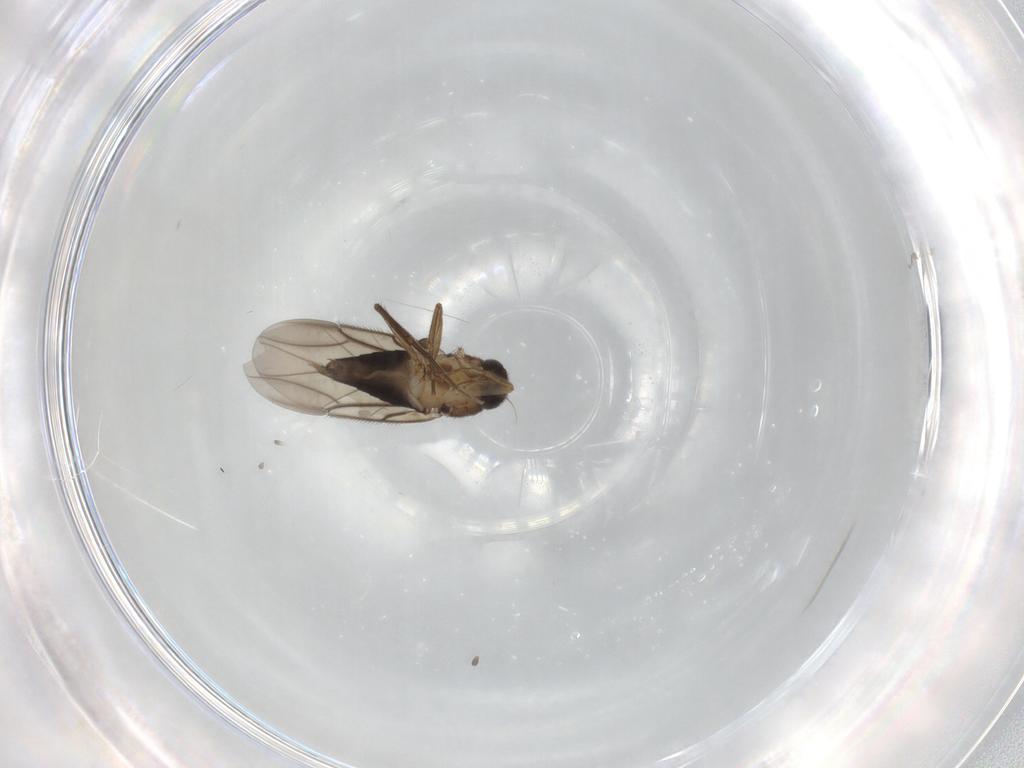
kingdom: Animalia
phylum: Arthropoda
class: Insecta
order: Diptera
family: Phoridae
